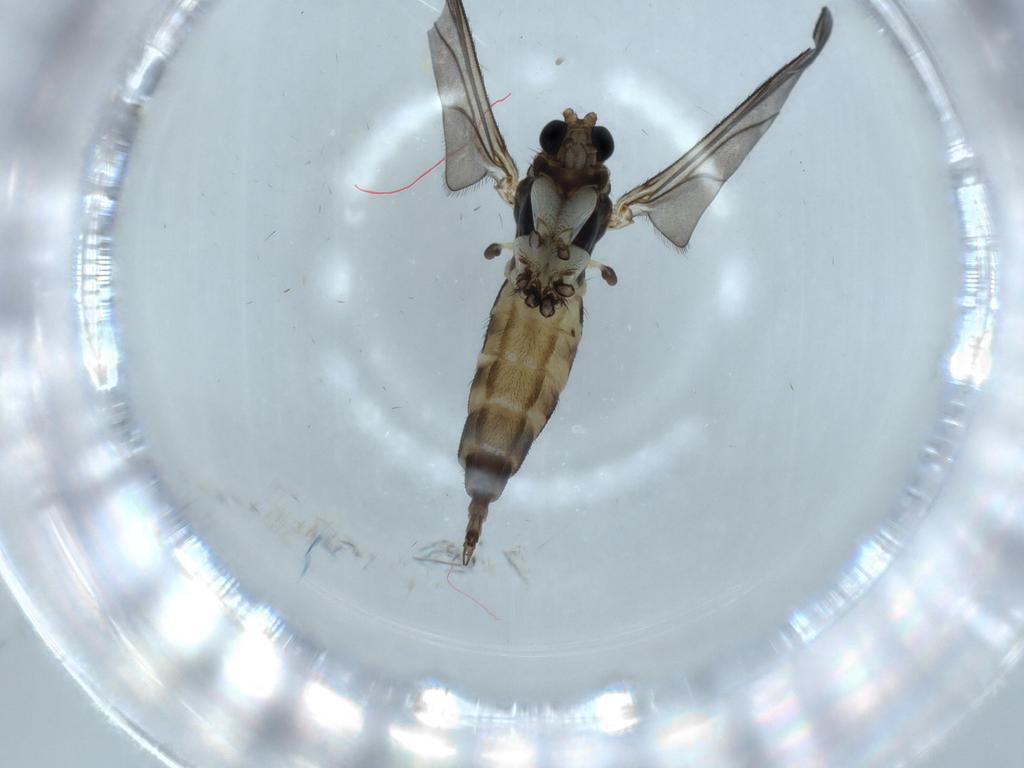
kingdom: Animalia
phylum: Arthropoda
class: Insecta
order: Diptera
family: Sciaridae
